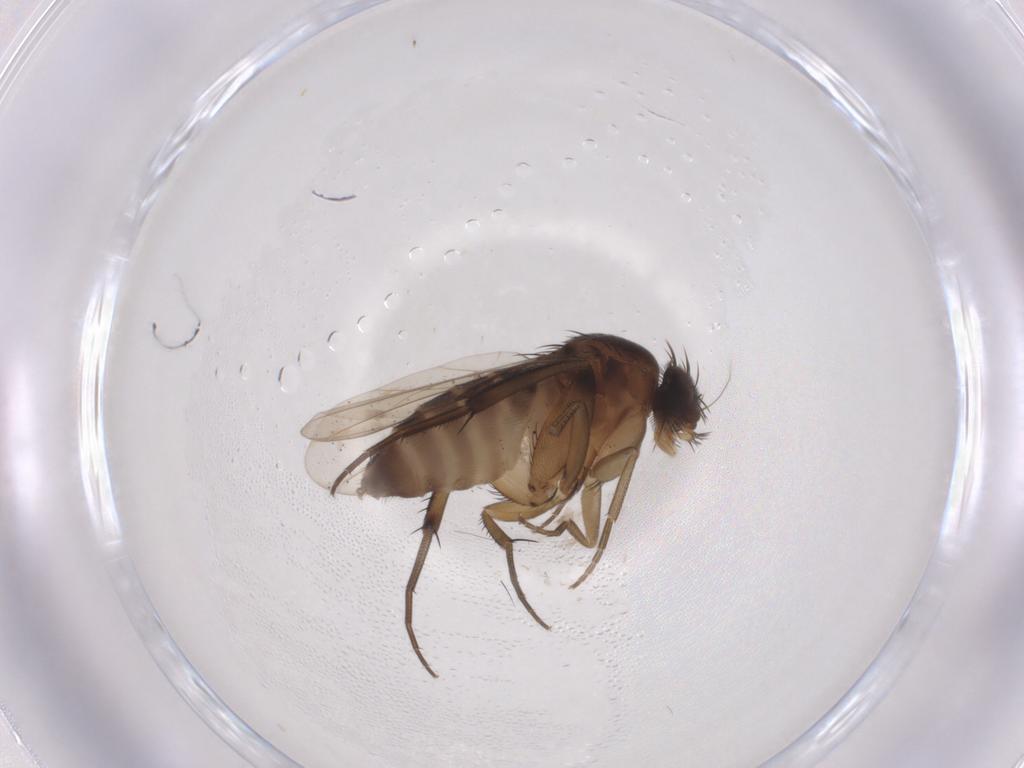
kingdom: Animalia
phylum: Arthropoda
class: Insecta
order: Diptera
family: Phoridae
